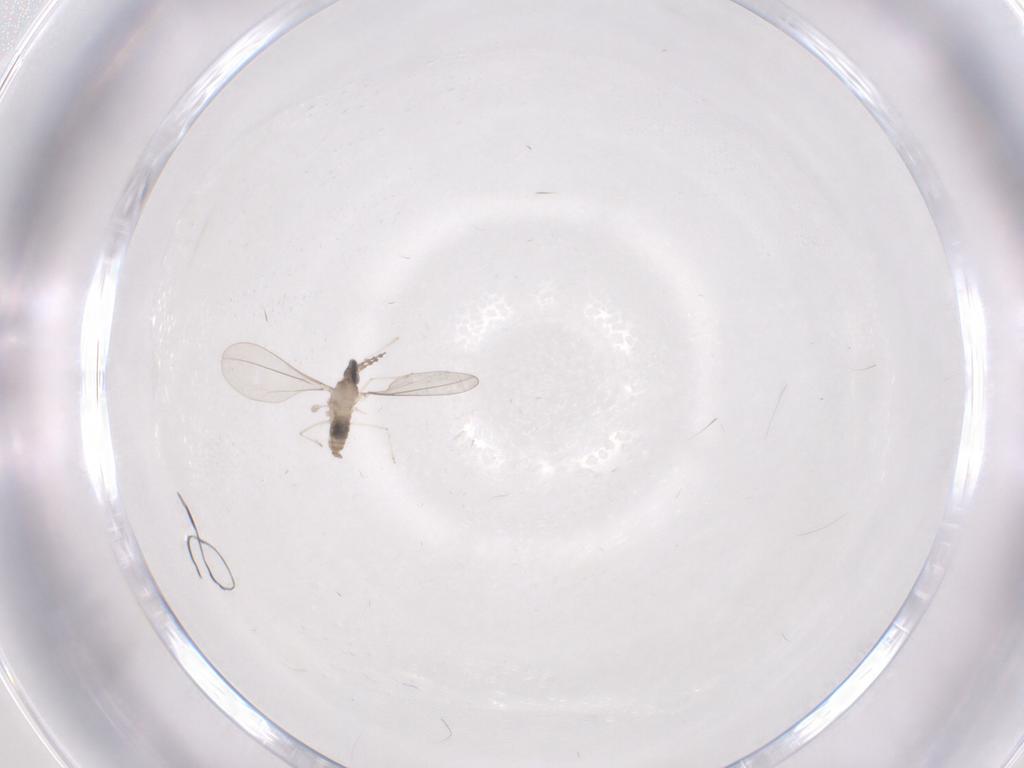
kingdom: Animalia
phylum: Arthropoda
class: Insecta
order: Diptera
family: Cecidomyiidae
